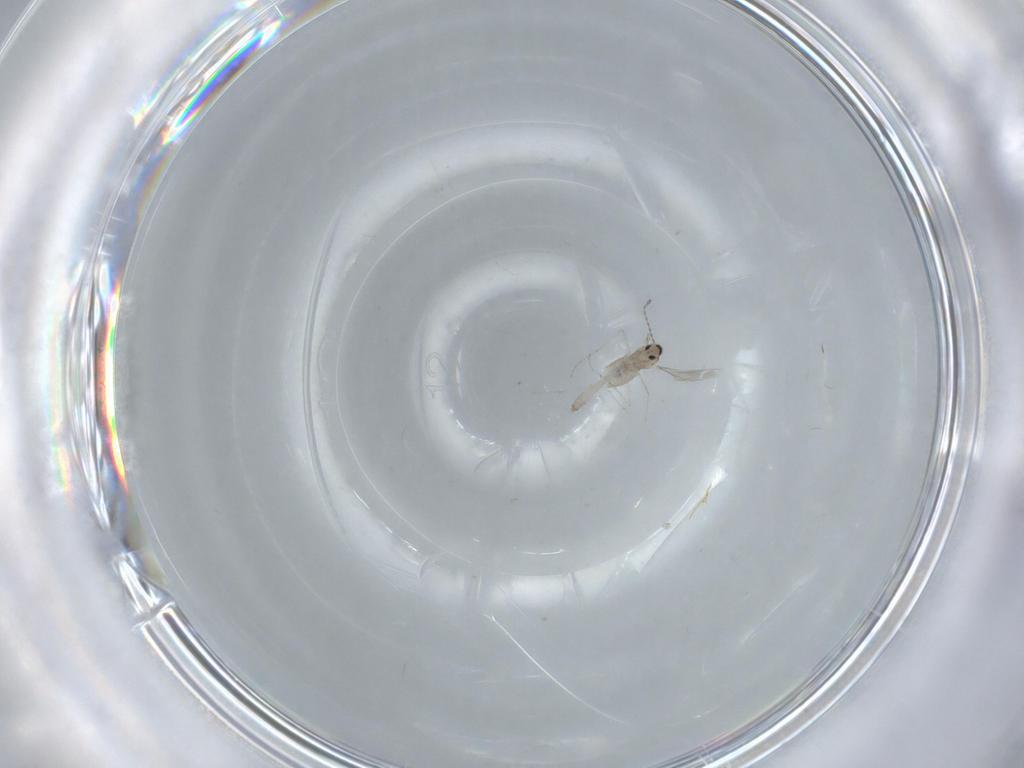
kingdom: Animalia
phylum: Arthropoda
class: Insecta
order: Diptera
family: Cecidomyiidae
